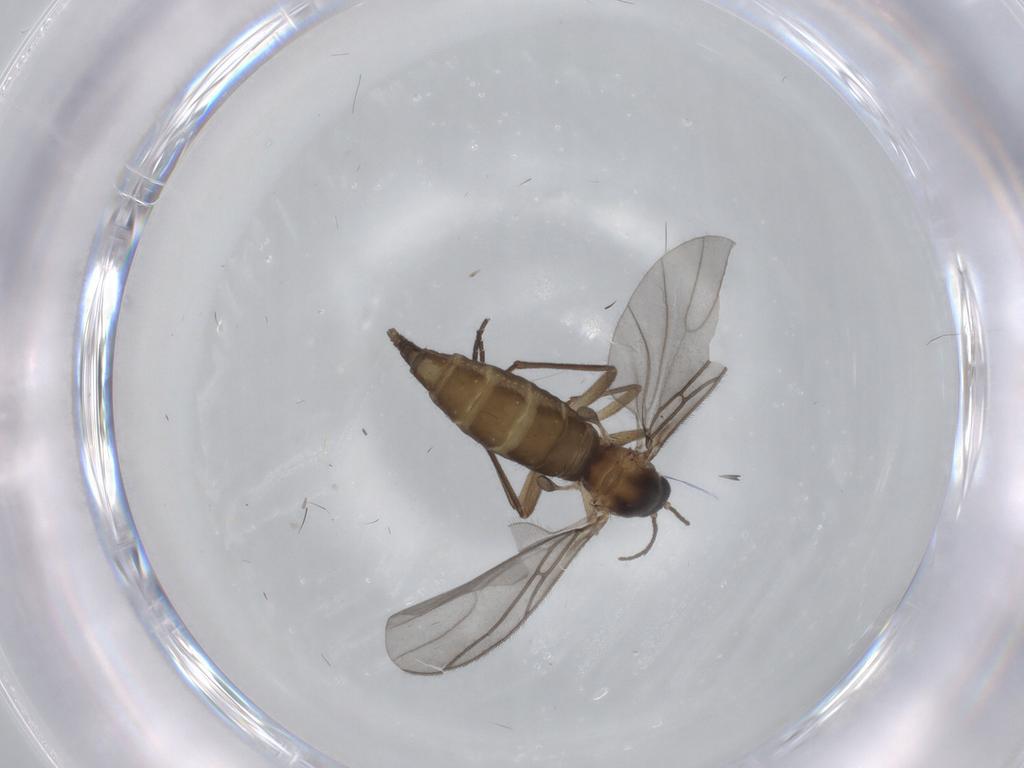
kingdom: Animalia
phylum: Arthropoda
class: Insecta
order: Diptera
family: Sciaridae
